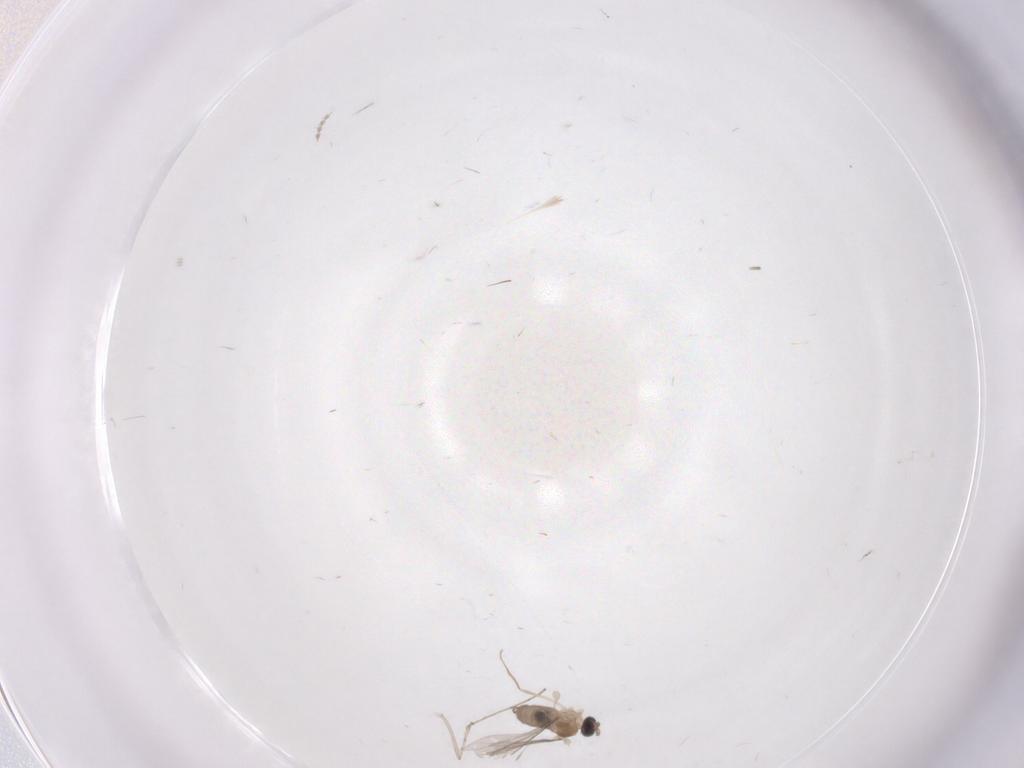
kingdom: Animalia
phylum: Arthropoda
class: Insecta
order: Diptera
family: Cecidomyiidae
